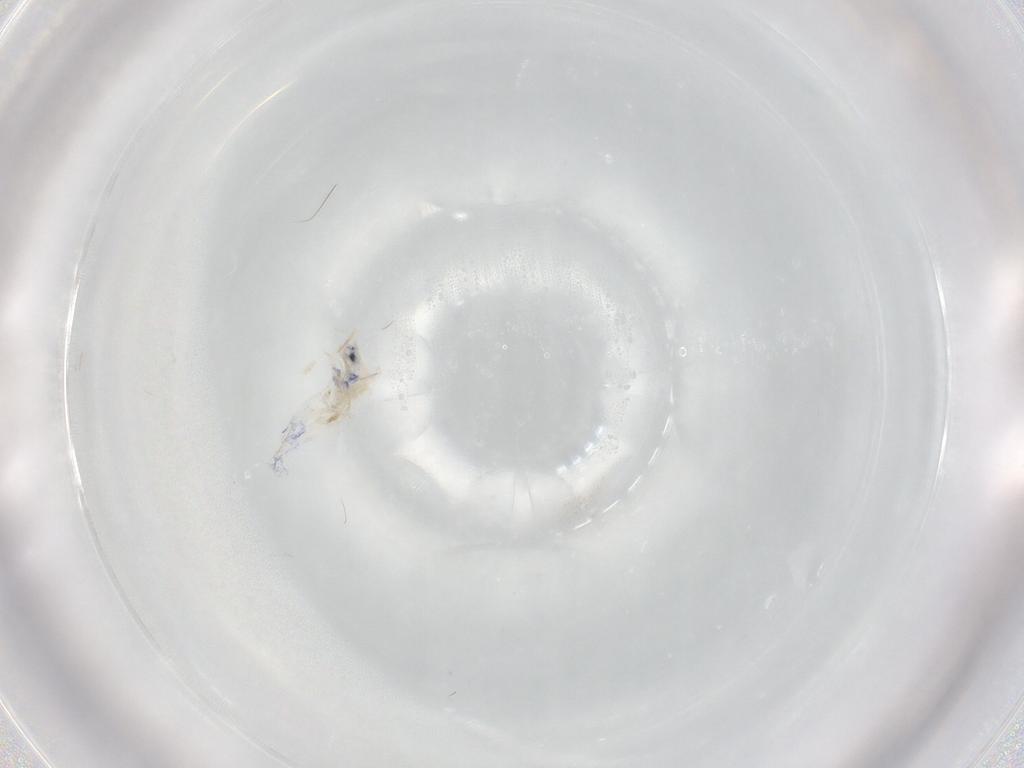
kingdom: Animalia
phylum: Arthropoda
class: Collembola
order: Entomobryomorpha
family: Entomobryidae
